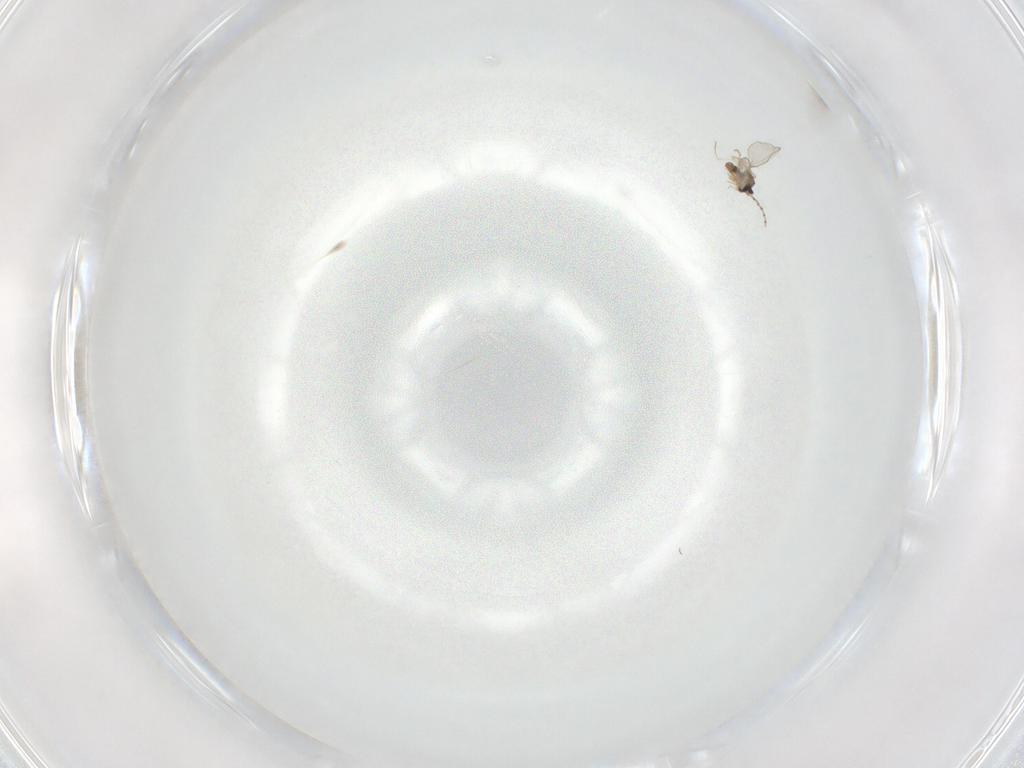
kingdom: Animalia
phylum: Arthropoda
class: Insecta
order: Diptera
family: Cecidomyiidae
